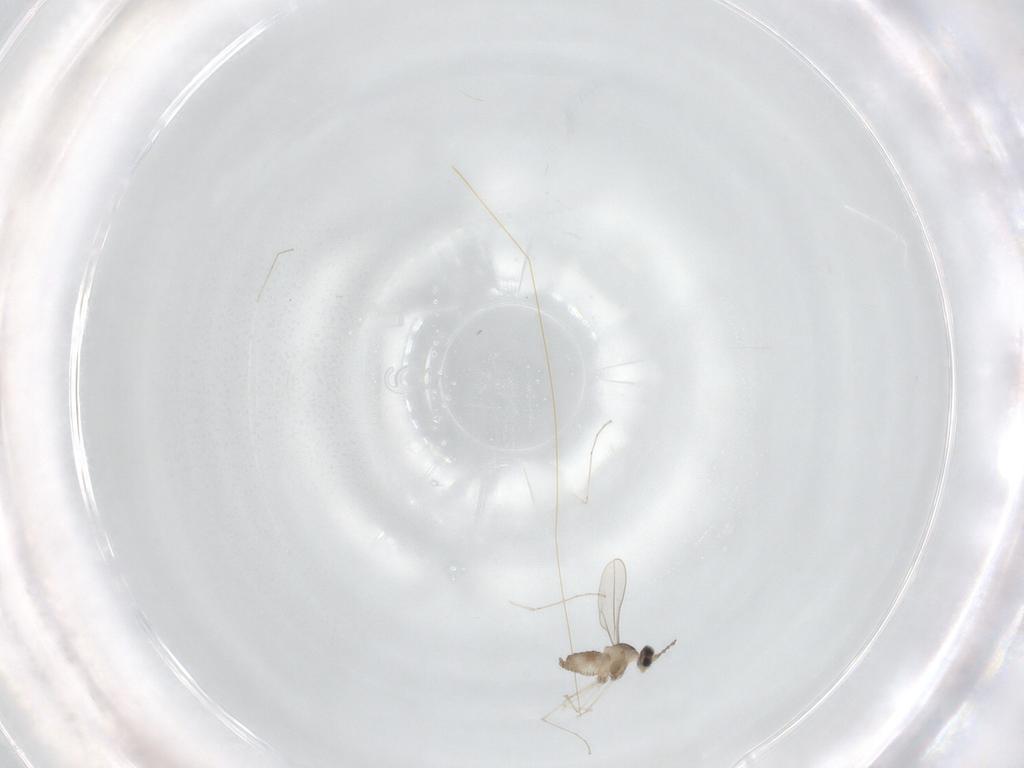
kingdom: Animalia
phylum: Arthropoda
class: Insecta
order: Diptera
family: Cecidomyiidae
